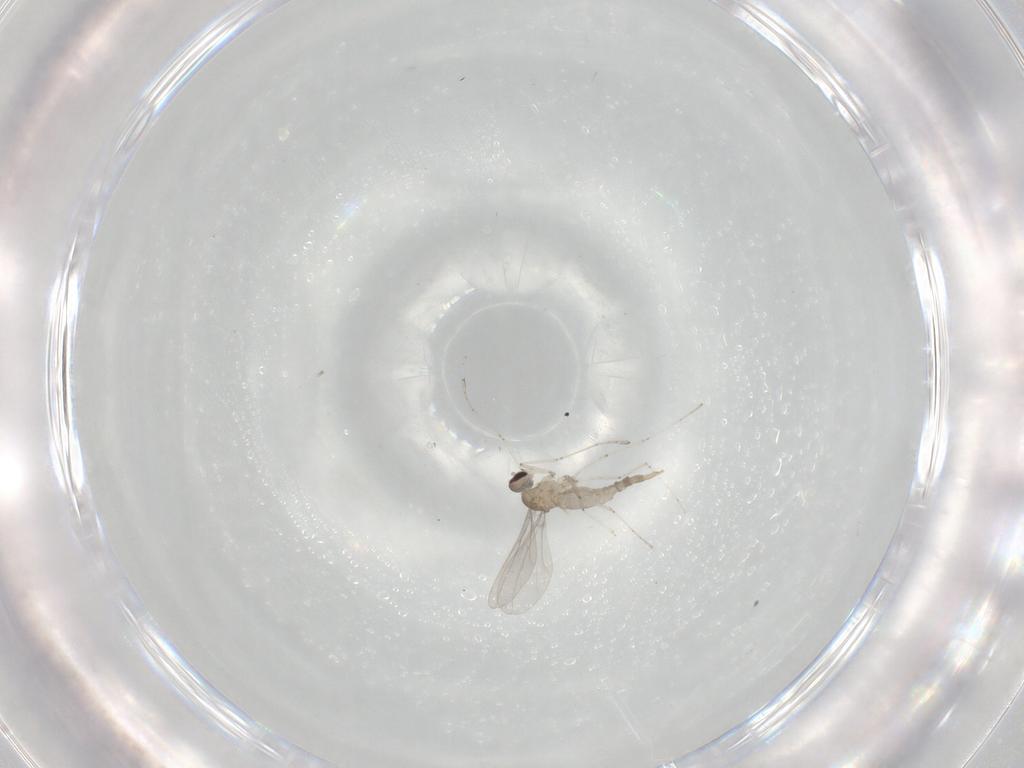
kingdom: Animalia
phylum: Arthropoda
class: Insecta
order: Diptera
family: Cecidomyiidae
